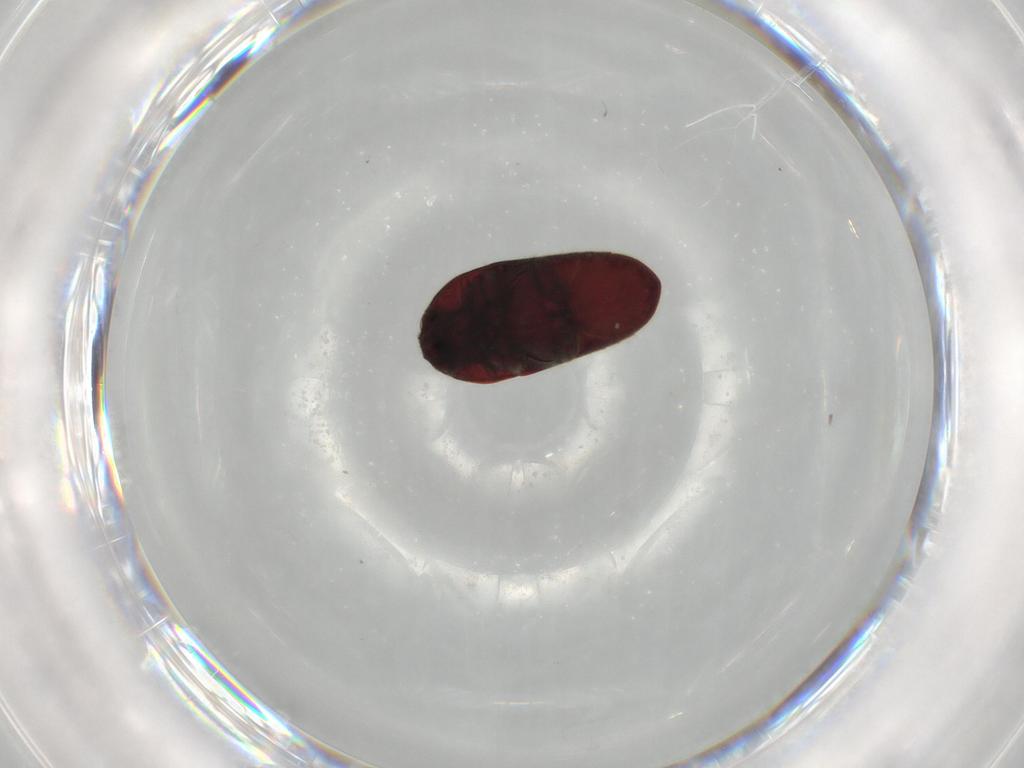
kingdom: Animalia
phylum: Arthropoda
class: Insecta
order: Coleoptera
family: Throscidae
